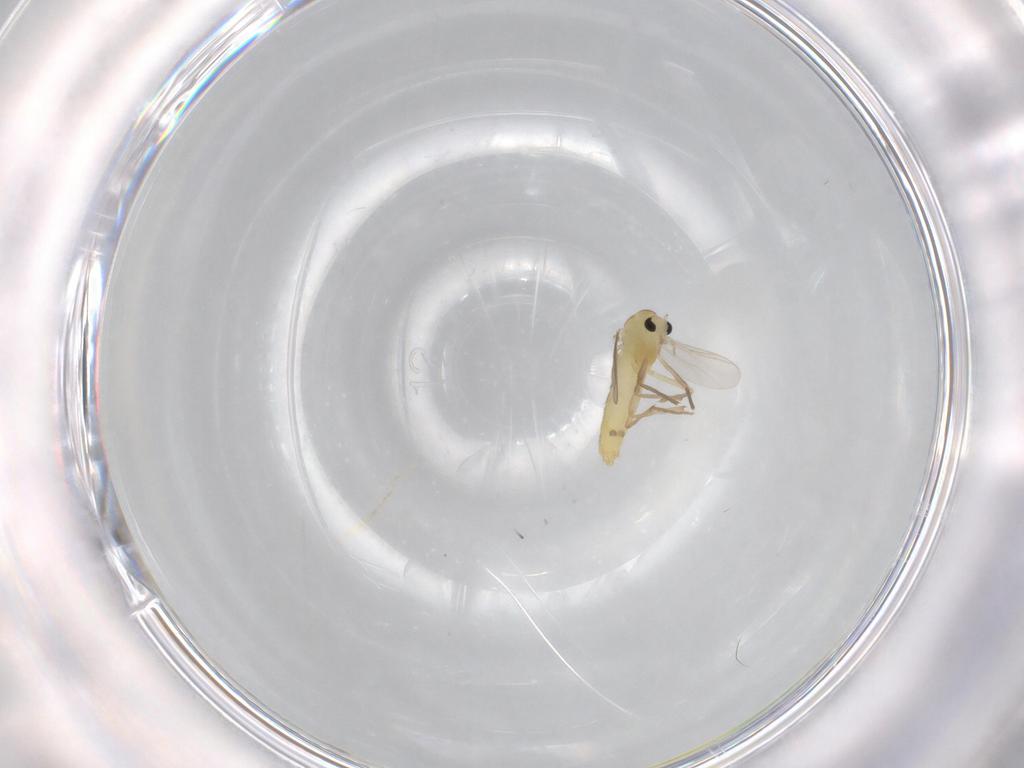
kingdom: Animalia
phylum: Arthropoda
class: Insecta
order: Diptera
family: Chironomidae
